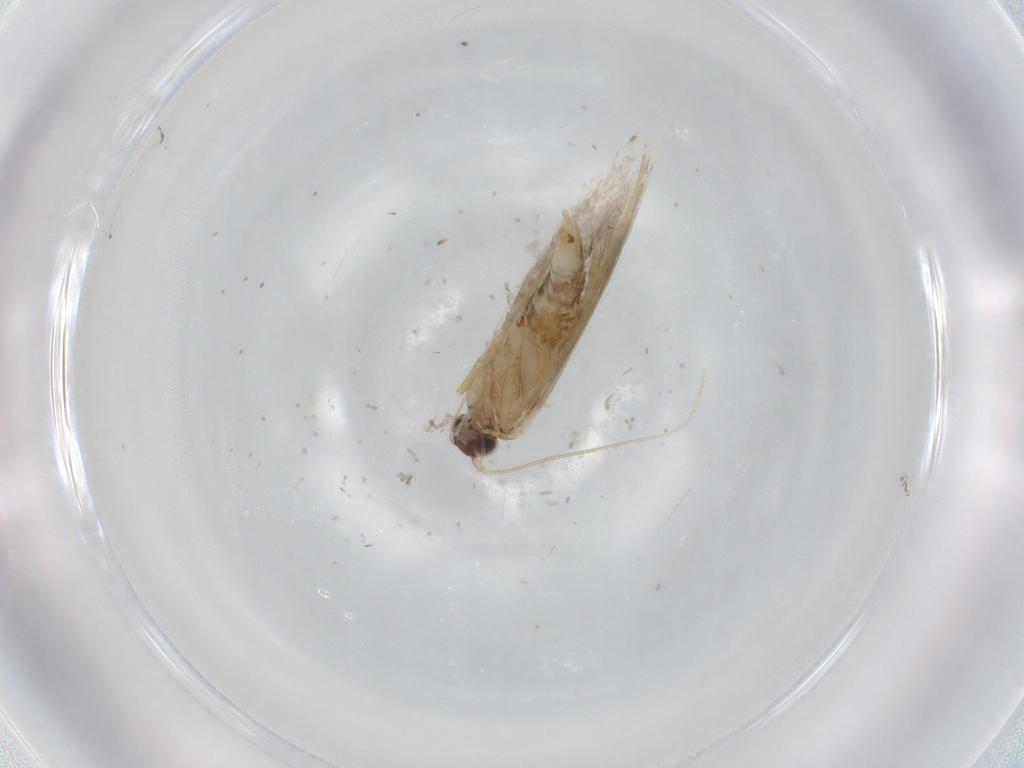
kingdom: Animalia
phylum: Arthropoda
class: Insecta
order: Lepidoptera
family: Tineidae
